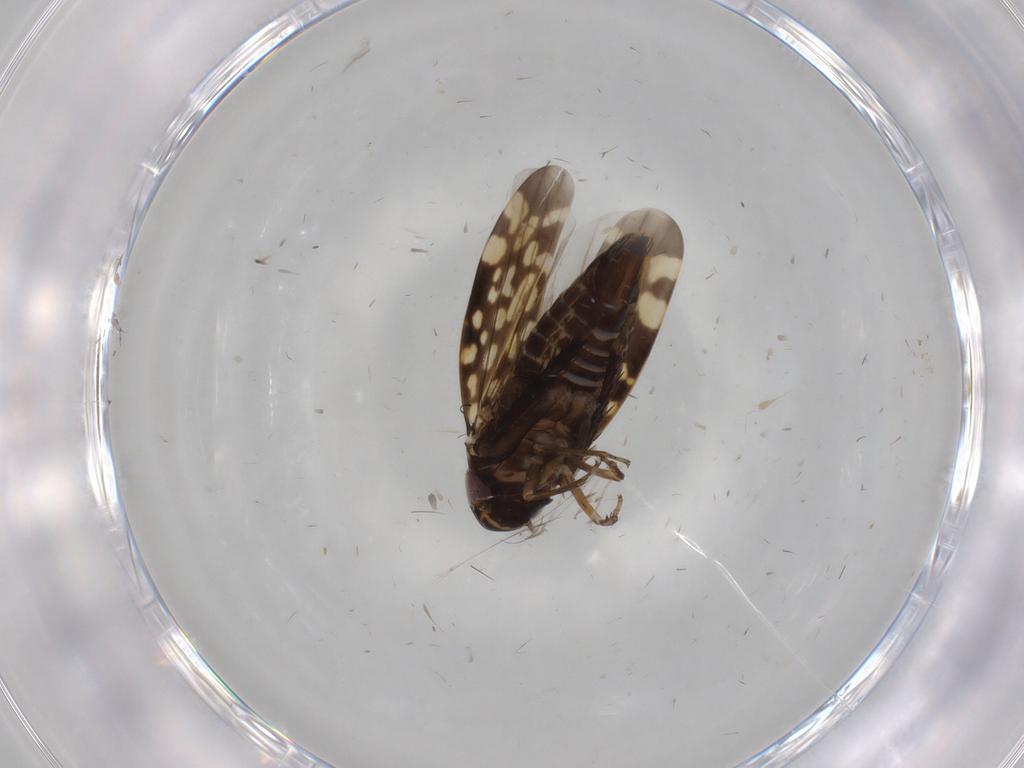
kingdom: Animalia
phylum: Arthropoda
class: Insecta
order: Hemiptera
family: Cicadellidae
